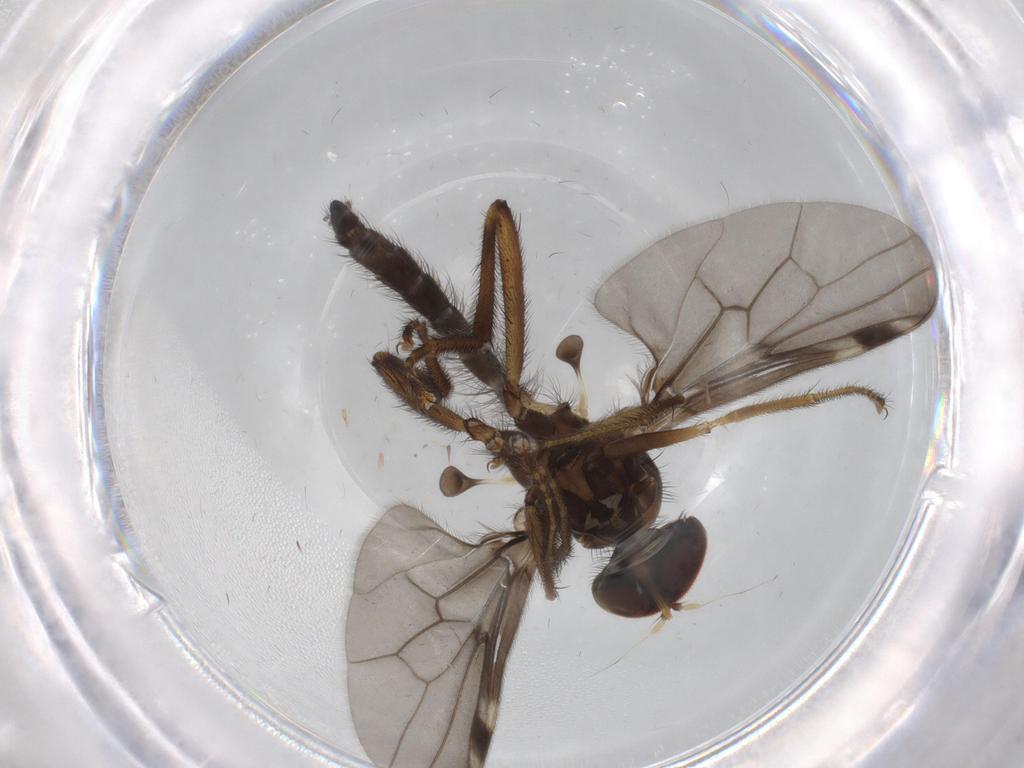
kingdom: Animalia
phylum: Arthropoda
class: Insecta
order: Diptera
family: Hybotidae
